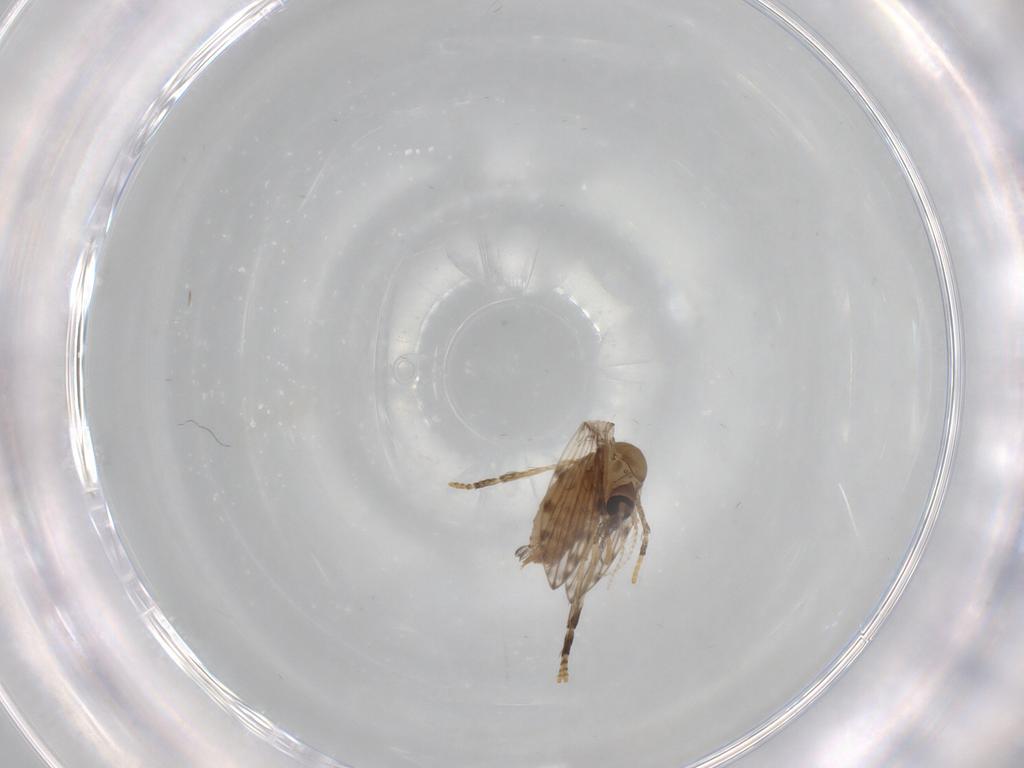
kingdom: Animalia
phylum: Arthropoda
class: Insecta
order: Diptera
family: Psychodidae
